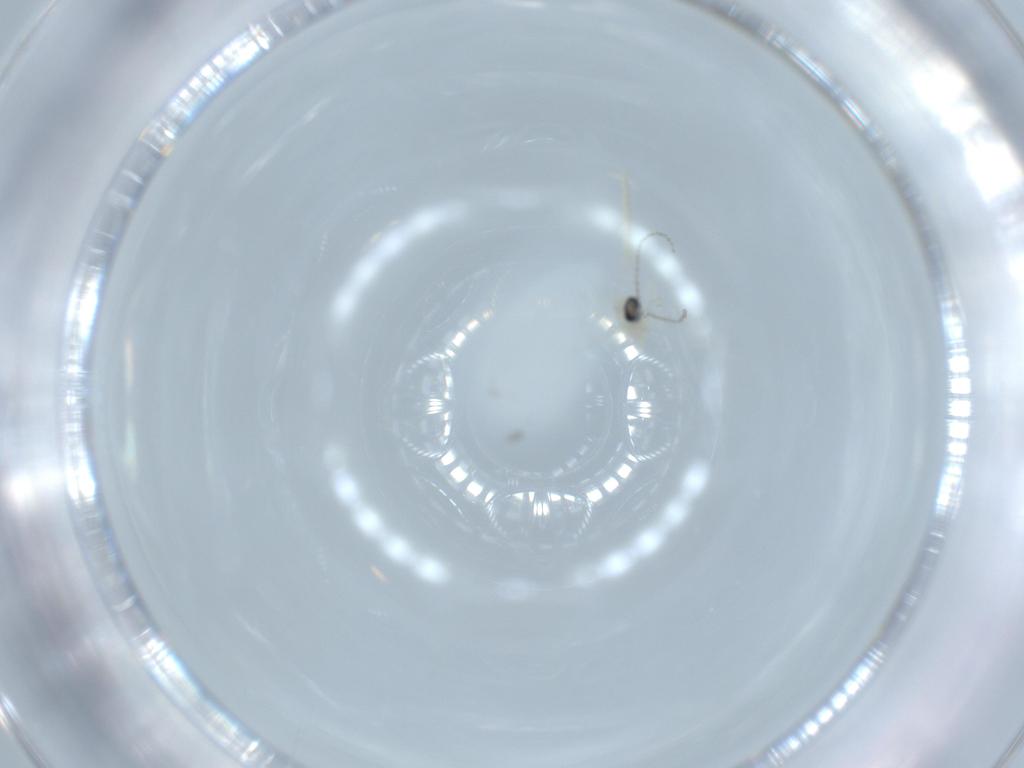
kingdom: Animalia
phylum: Arthropoda
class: Insecta
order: Diptera
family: Cecidomyiidae
